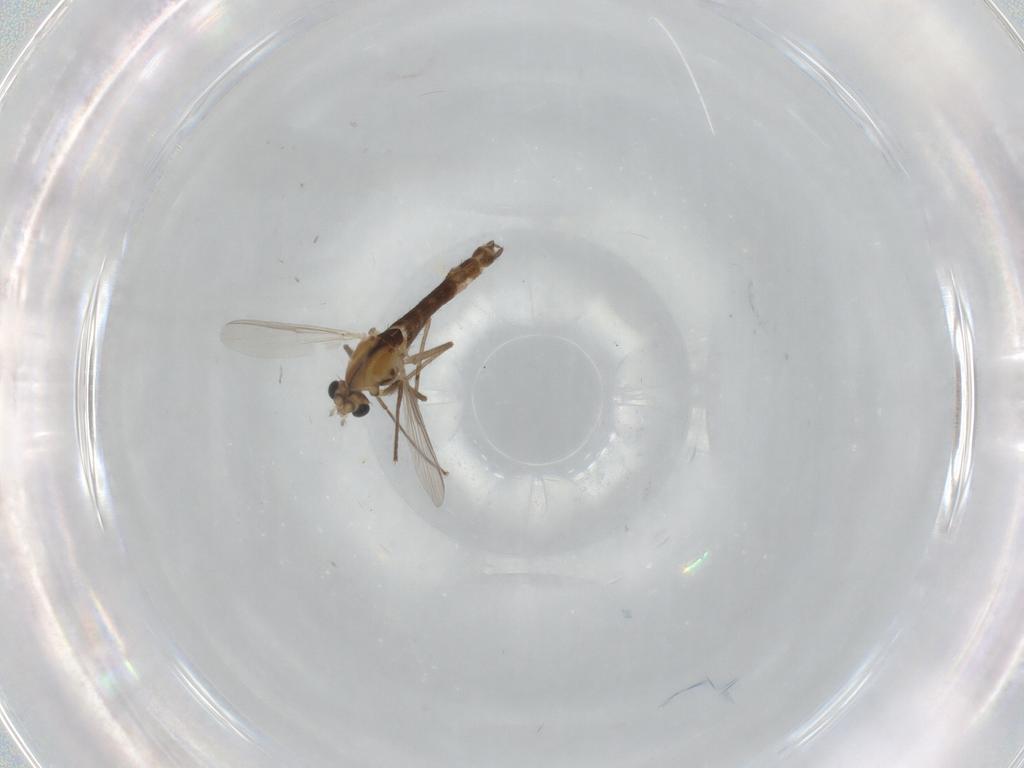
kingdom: Animalia
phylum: Arthropoda
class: Insecta
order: Diptera
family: Chironomidae
